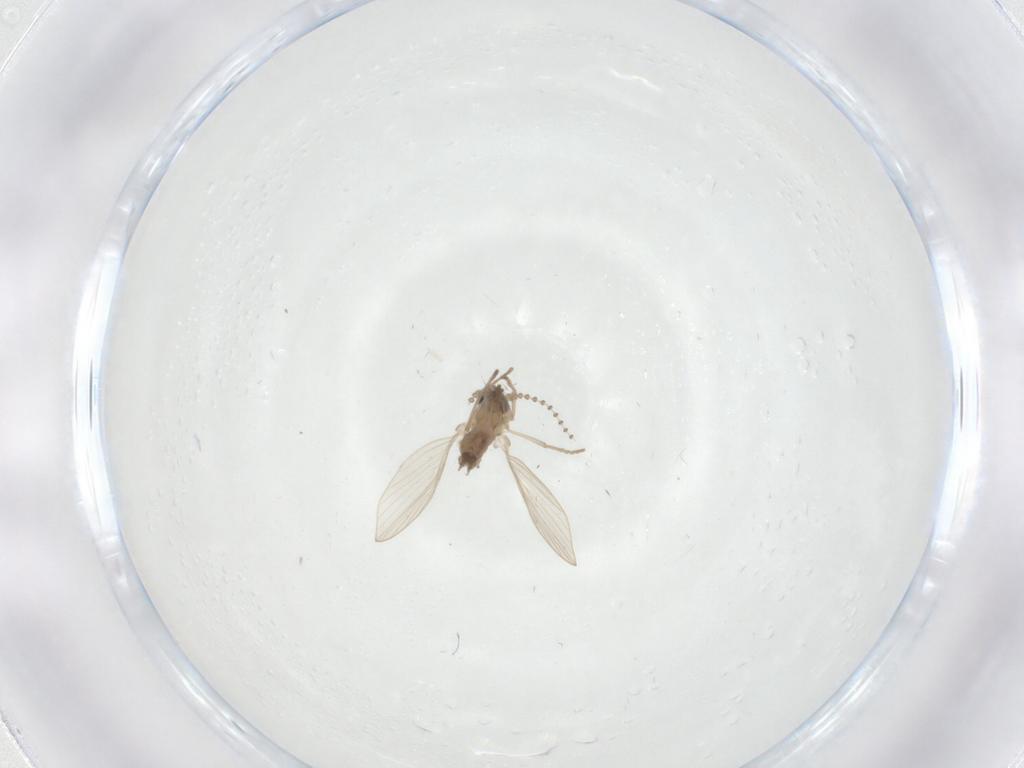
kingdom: Animalia
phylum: Arthropoda
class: Insecta
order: Diptera
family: Psychodidae
